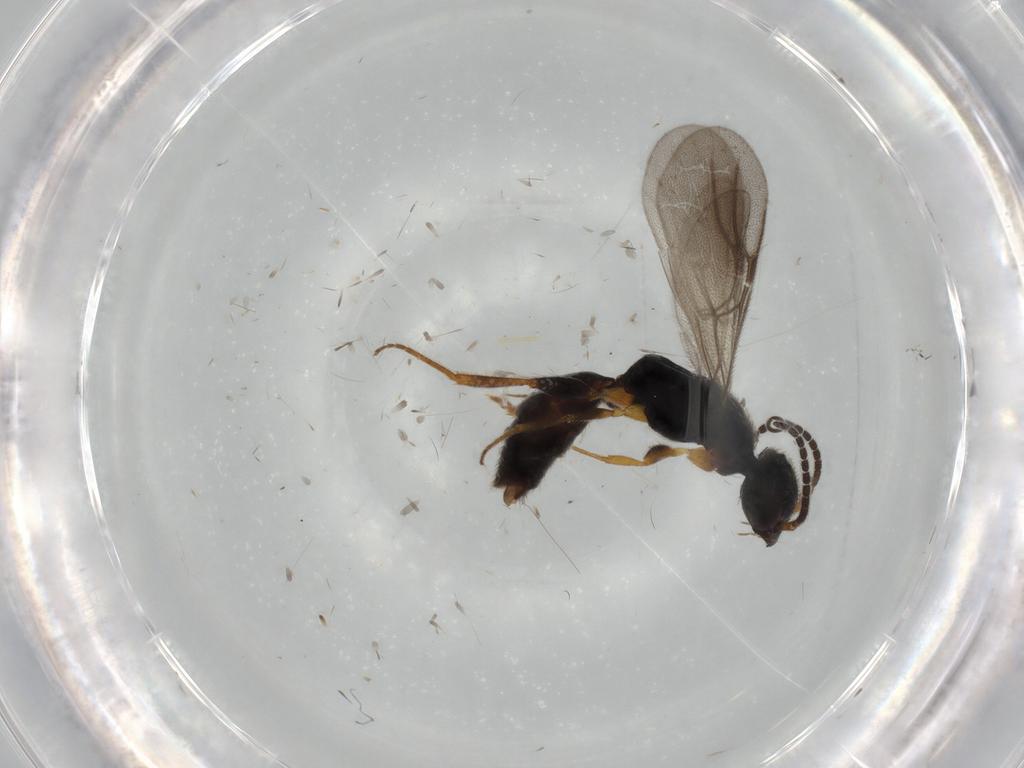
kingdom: Animalia
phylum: Arthropoda
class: Insecta
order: Hymenoptera
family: Bethylidae
